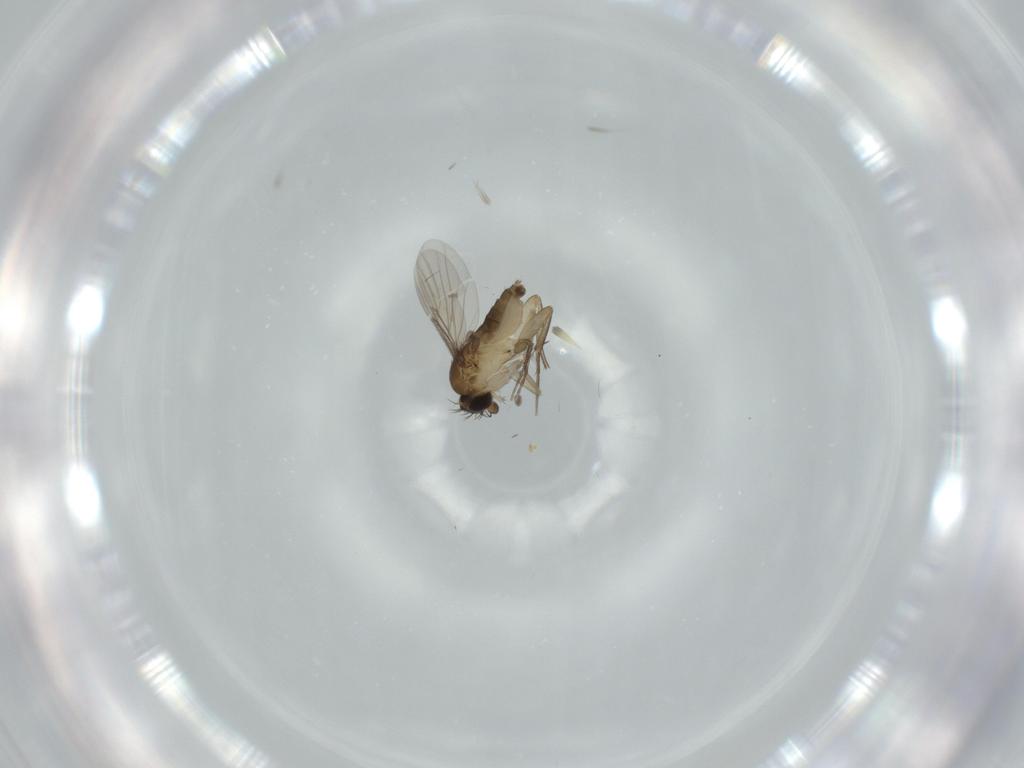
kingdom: Animalia
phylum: Arthropoda
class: Insecta
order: Diptera
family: Phoridae
